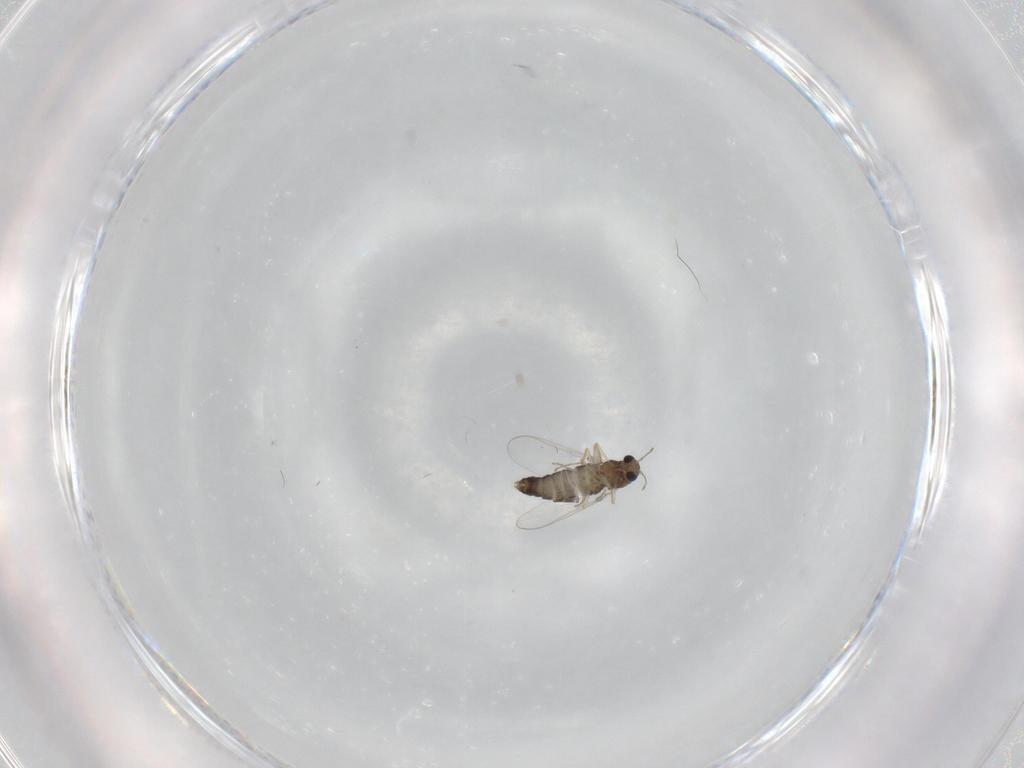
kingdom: Animalia
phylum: Arthropoda
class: Insecta
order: Diptera
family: Chironomidae
